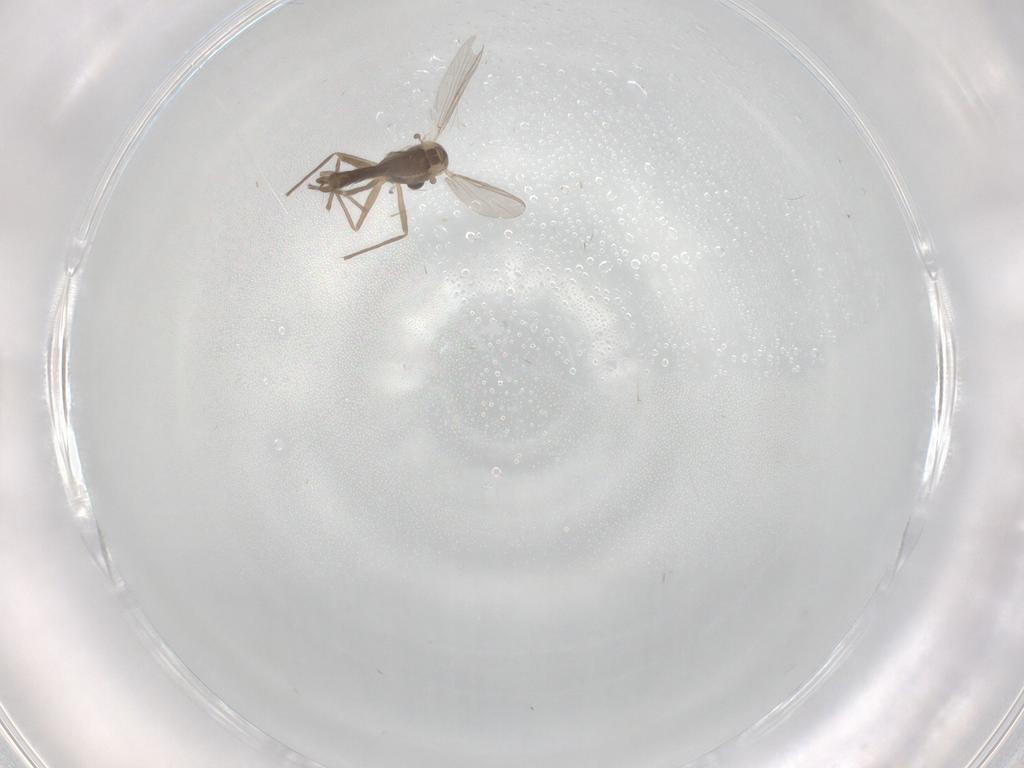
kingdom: Animalia
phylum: Arthropoda
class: Insecta
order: Diptera
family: Chironomidae
